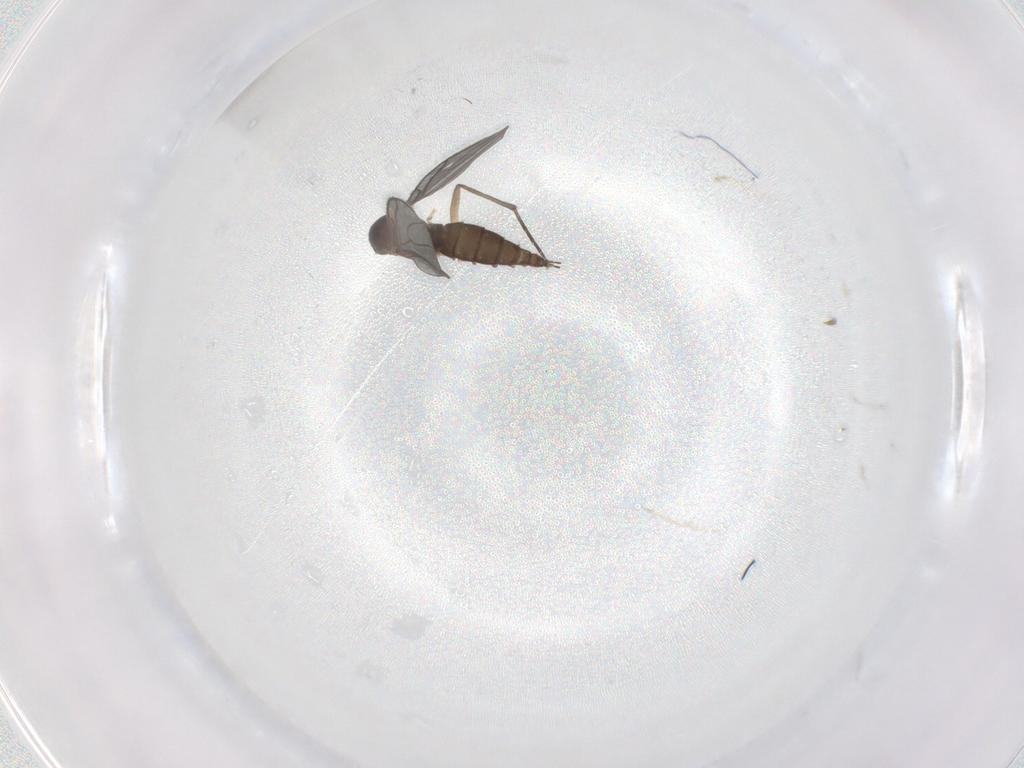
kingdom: Animalia
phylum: Arthropoda
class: Insecta
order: Diptera
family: Sciaridae
